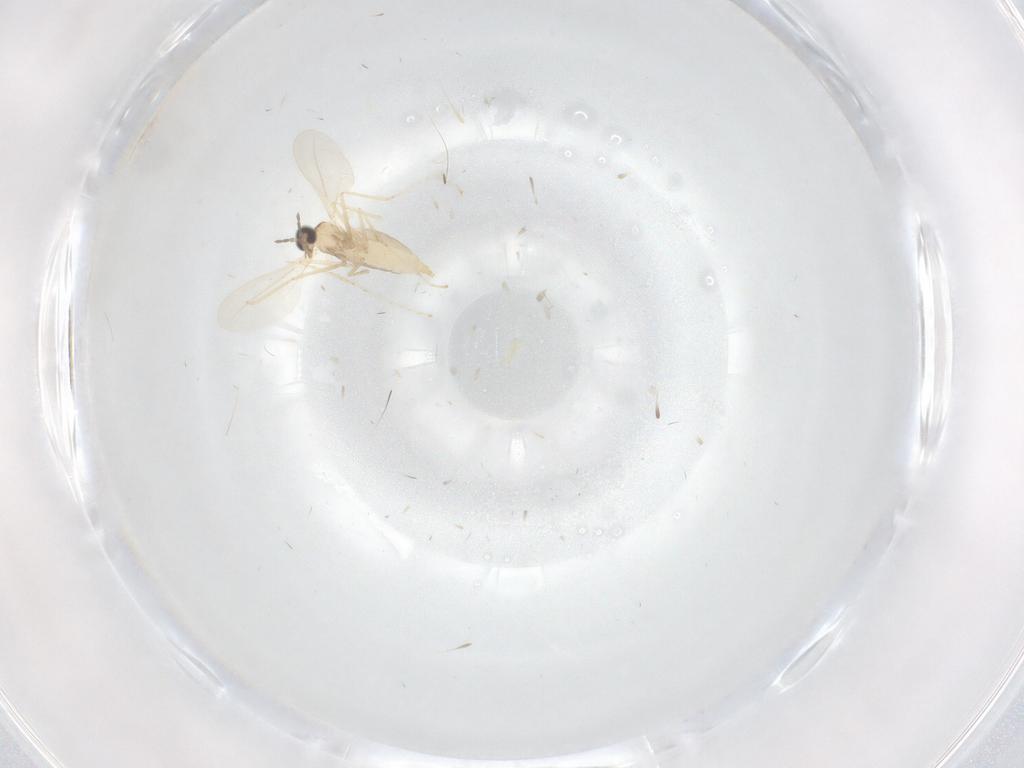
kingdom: Animalia
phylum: Arthropoda
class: Insecta
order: Diptera
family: Ceratopogonidae
